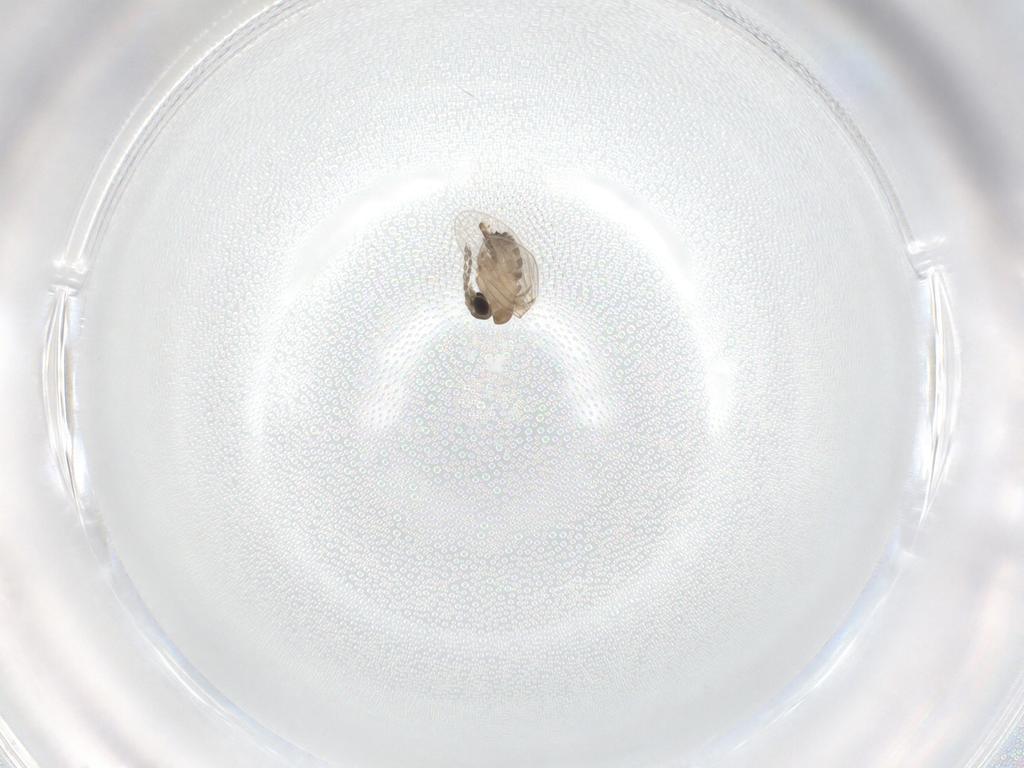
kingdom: Animalia
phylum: Arthropoda
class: Insecta
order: Diptera
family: Psychodidae
